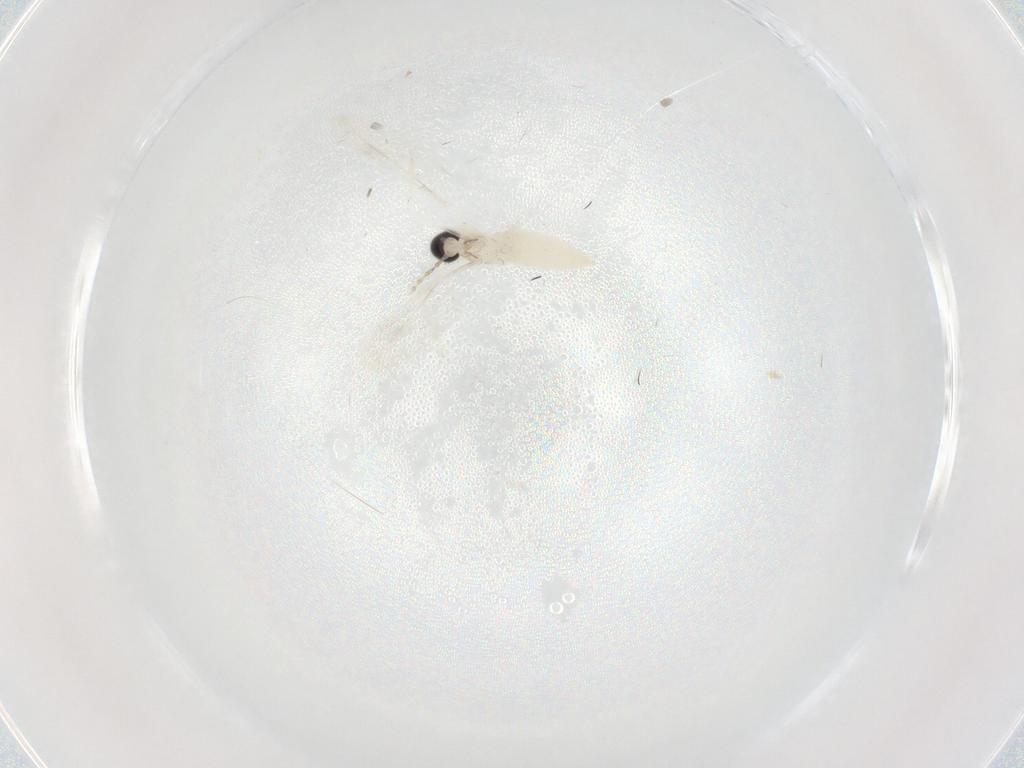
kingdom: Animalia
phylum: Arthropoda
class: Insecta
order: Diptera
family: Cecidomyiidae
